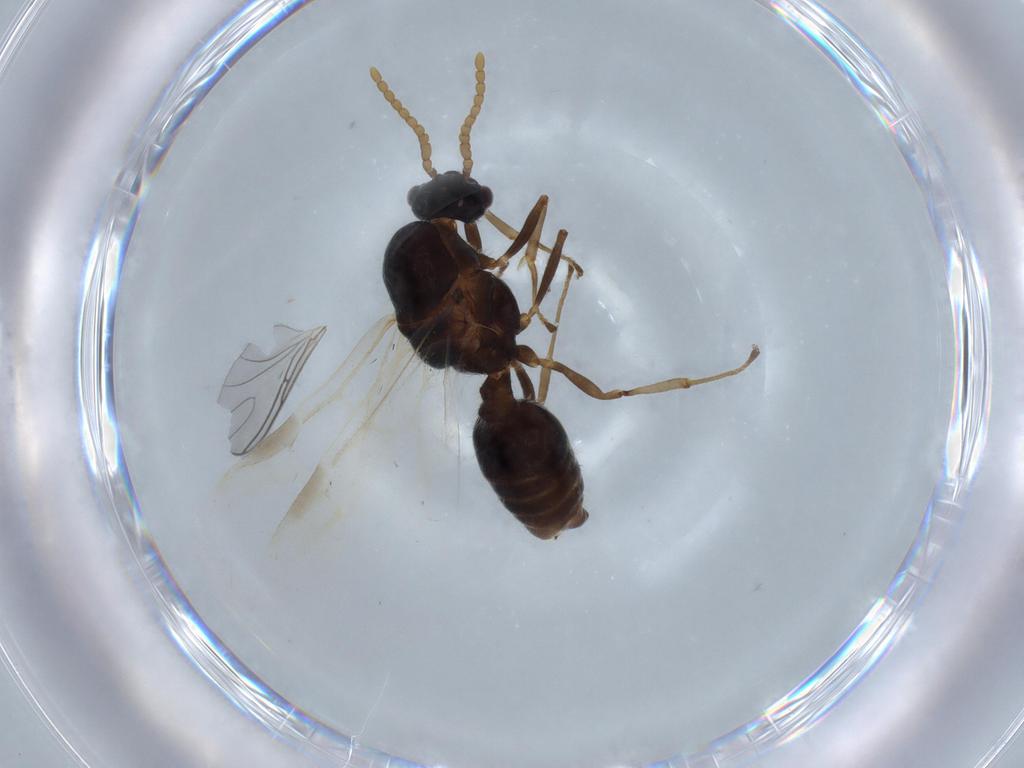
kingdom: Animalia
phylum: Arthropoda
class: Insecta
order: Hymenoptera
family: Formicidae
